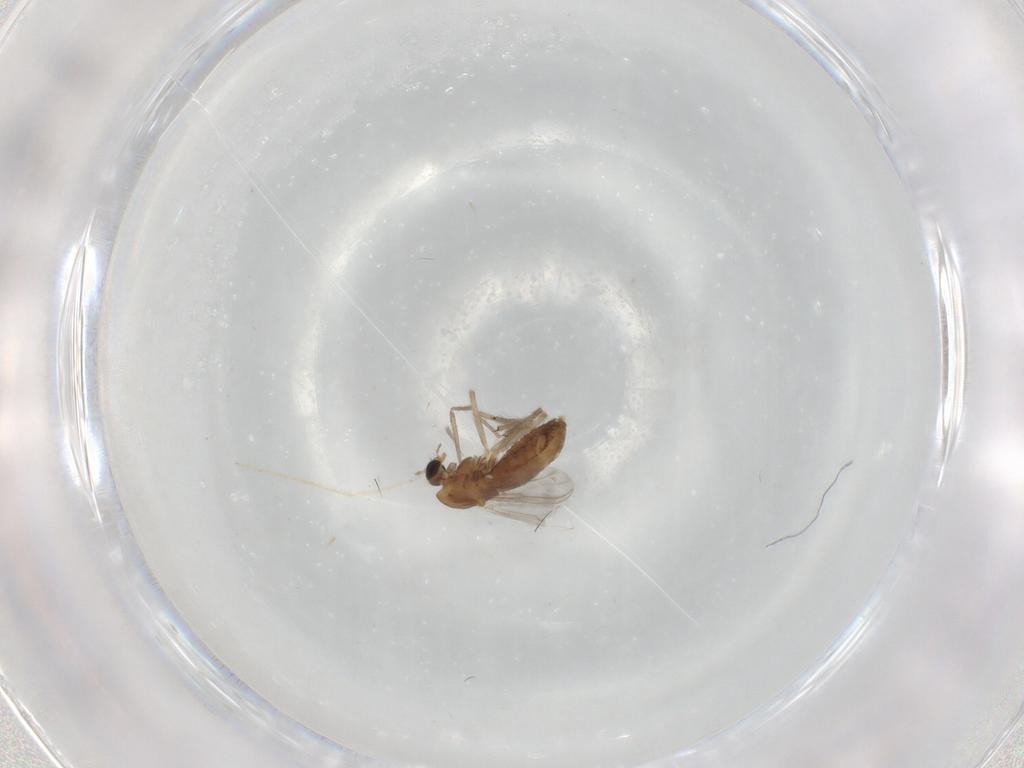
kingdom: Animalia
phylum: Arthropoda
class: Insecta
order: Diptera
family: Chironomidae
